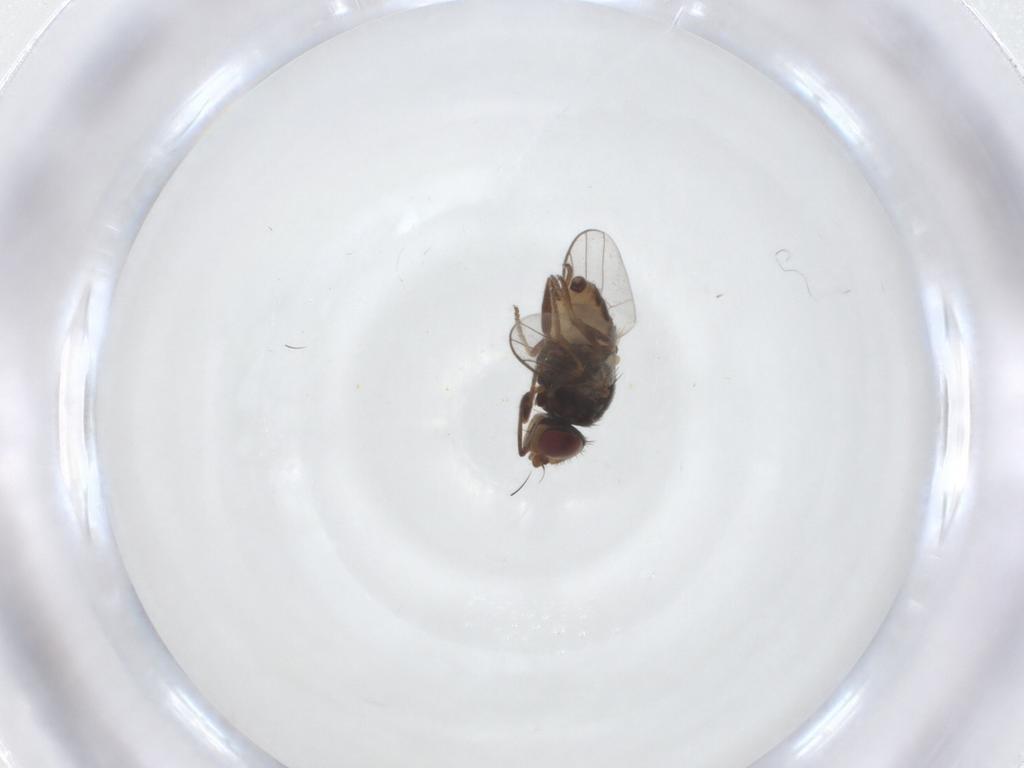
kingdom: Animalia
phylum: Arthropoda
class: Insecta
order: Diptera
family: Chloropidae
